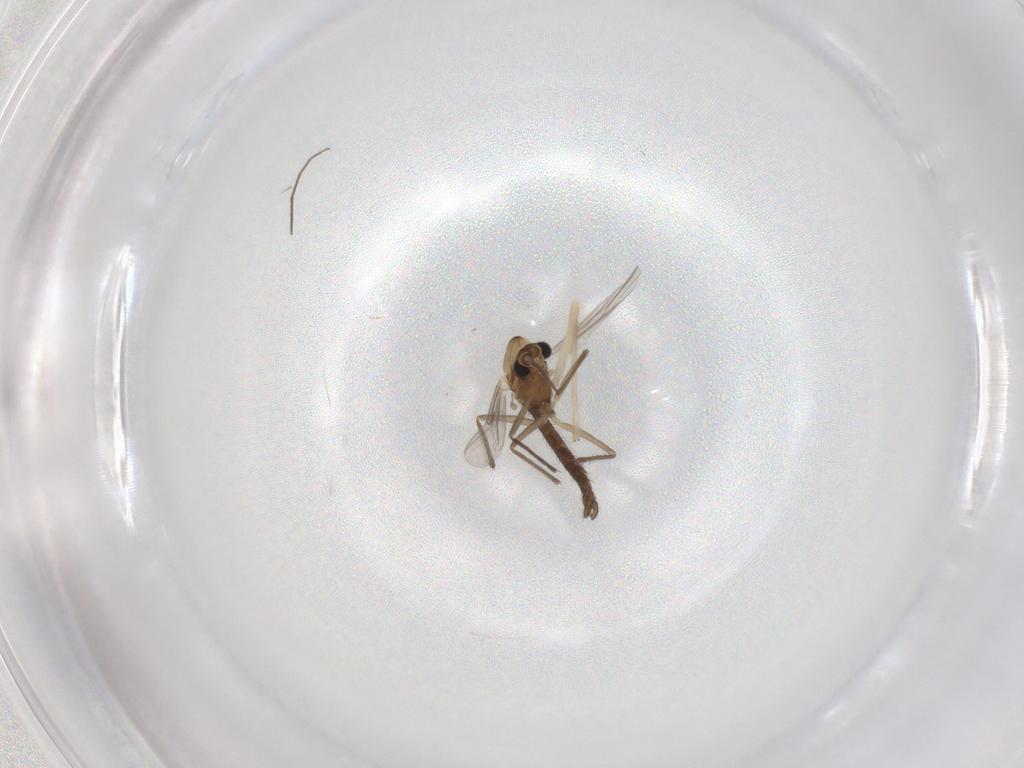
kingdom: Animalia
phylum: Arthropoda
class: Insecta
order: Diptera
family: Chironomidae
